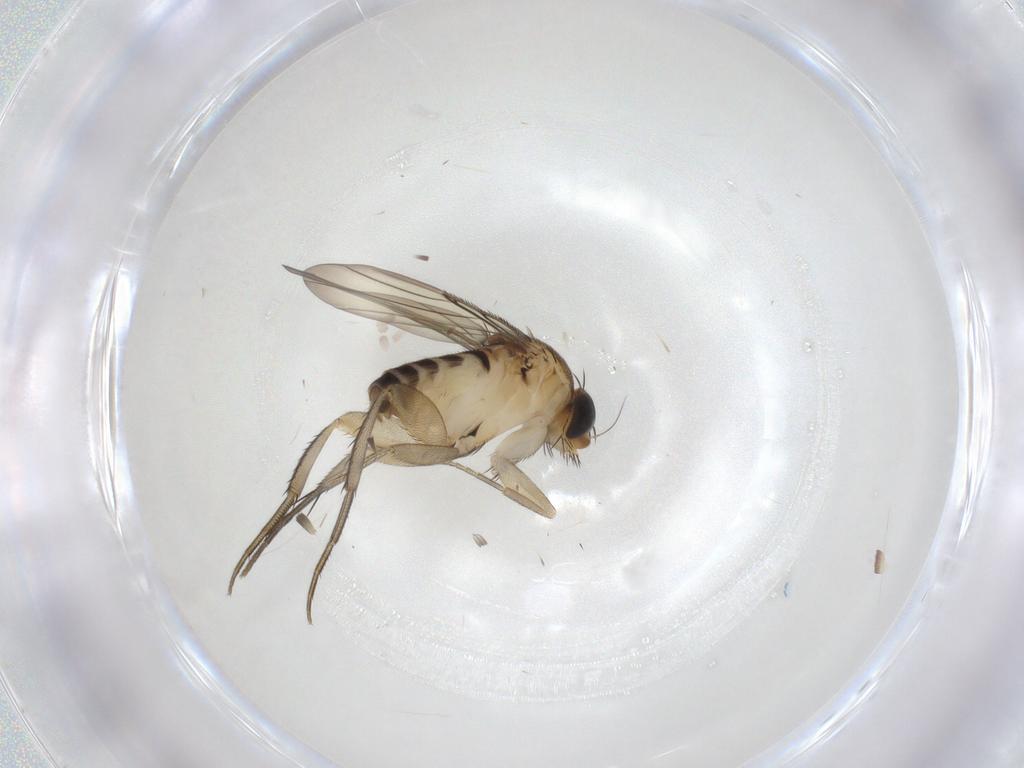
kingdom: Animalia
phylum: Arthropoda
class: Insecta
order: Diptera
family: Phoridae
